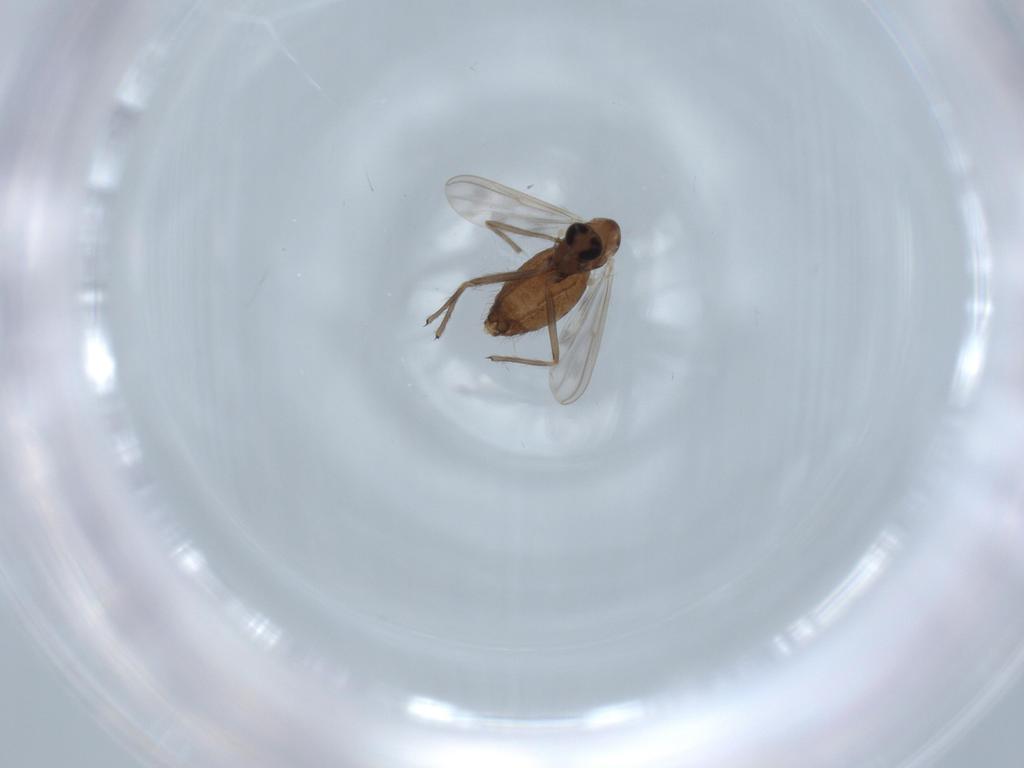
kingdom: Animalia
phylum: Arthropoda
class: Insecta
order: Diptera
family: Chironomidae
